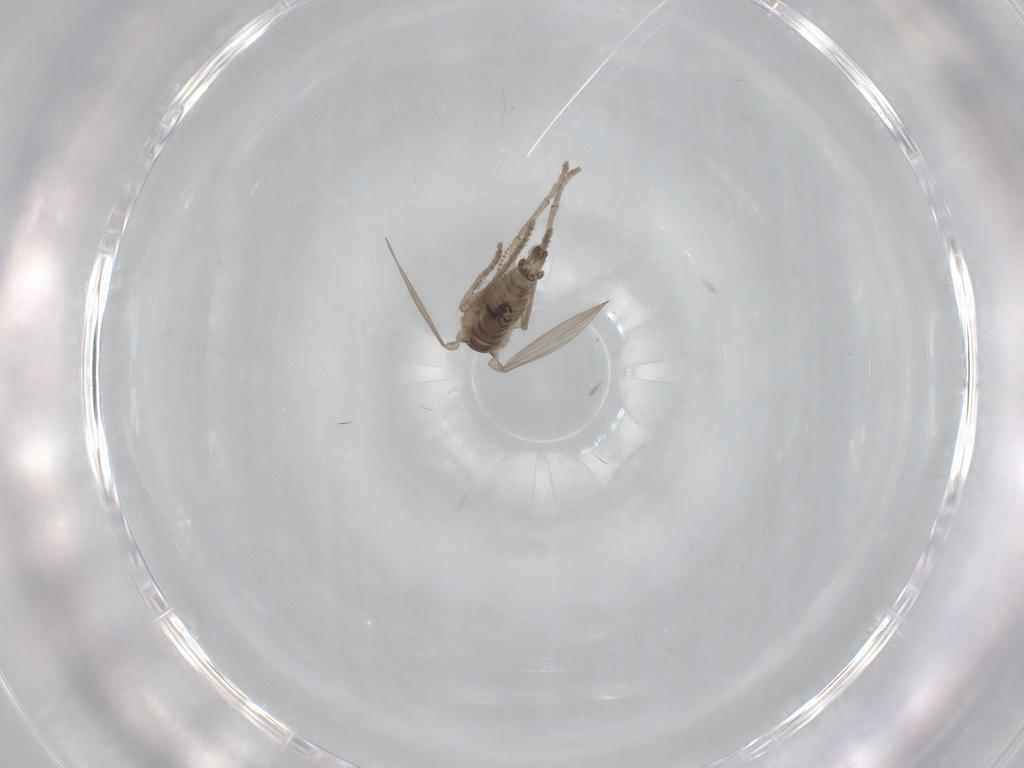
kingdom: Animalia
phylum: Arthropoda
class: Insecta
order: Diptera
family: Psychodidae
